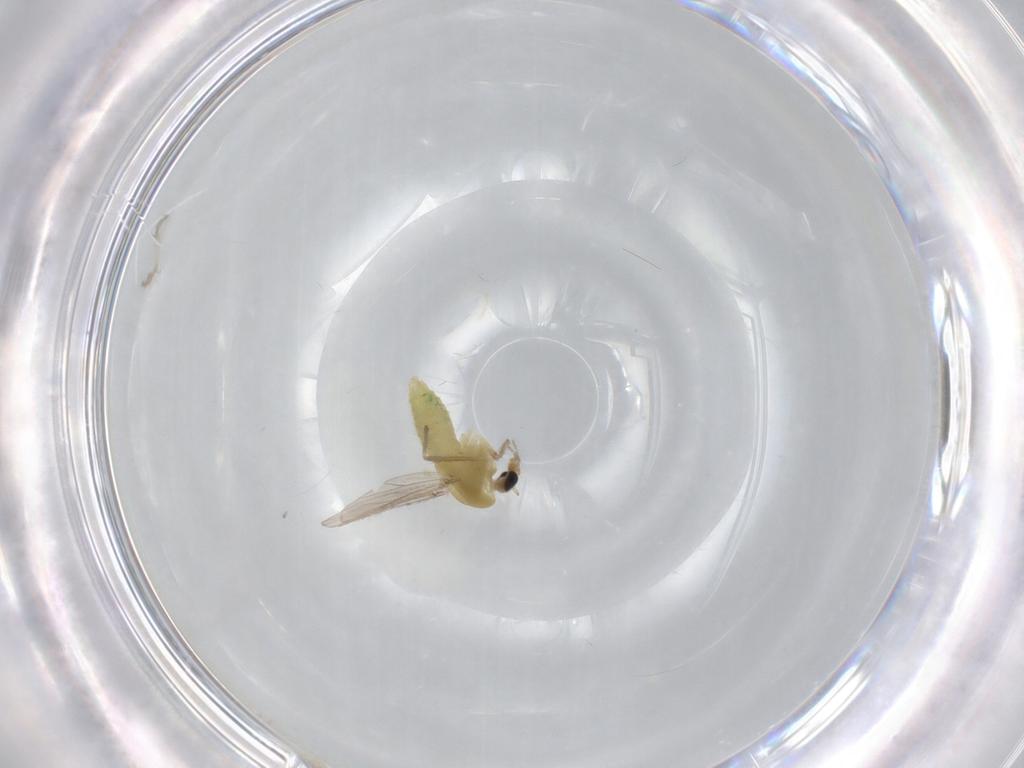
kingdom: Animalia
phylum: Arthropoda
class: Insecta
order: Diptera
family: Chironomidae
